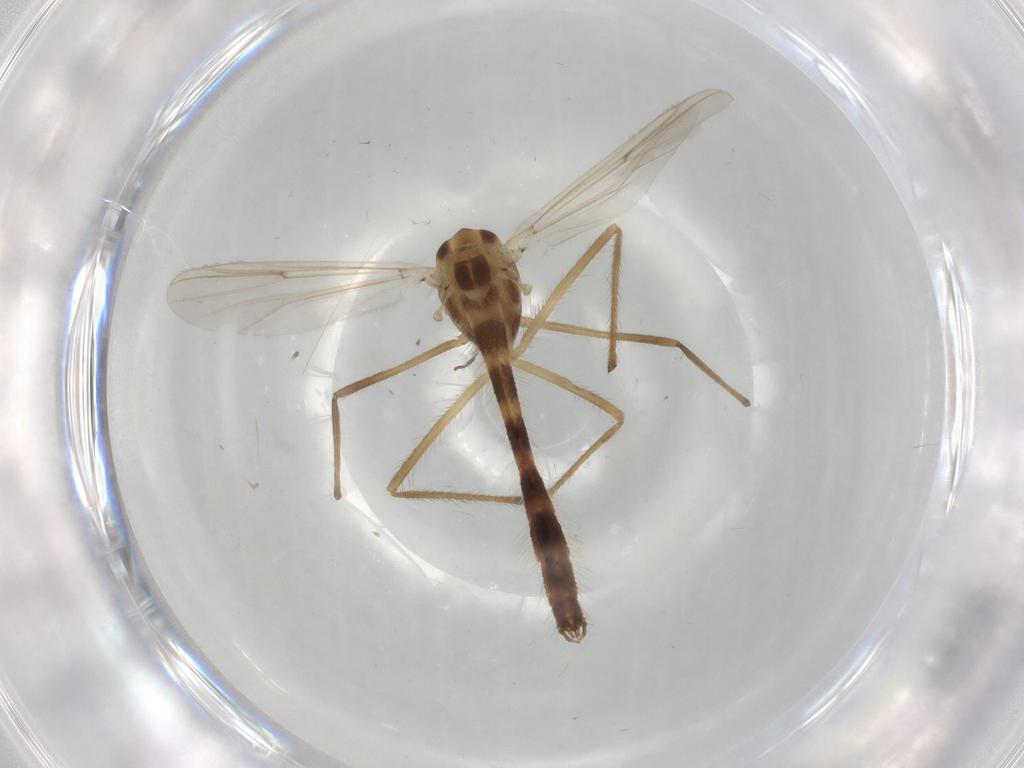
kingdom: Animalia
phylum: Arthropoda
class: Insecta
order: Diptera
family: Chironomidae
